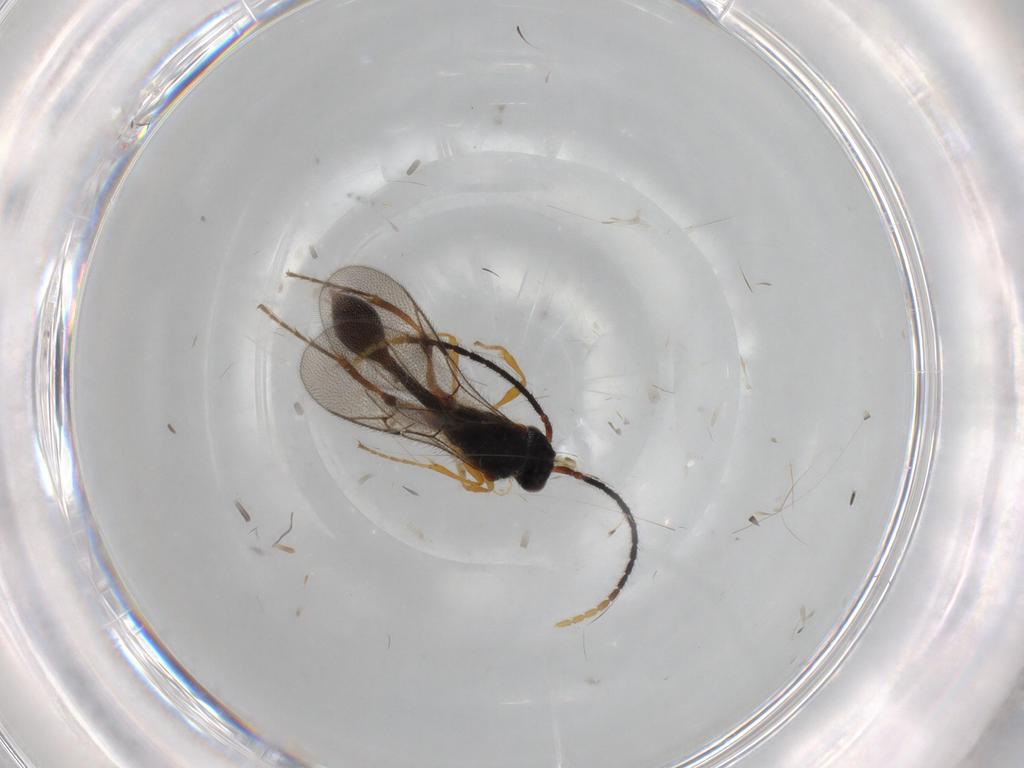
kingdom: Animalia
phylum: Arthropoda
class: Insecta
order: Hymenoptera
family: Diapriidae
